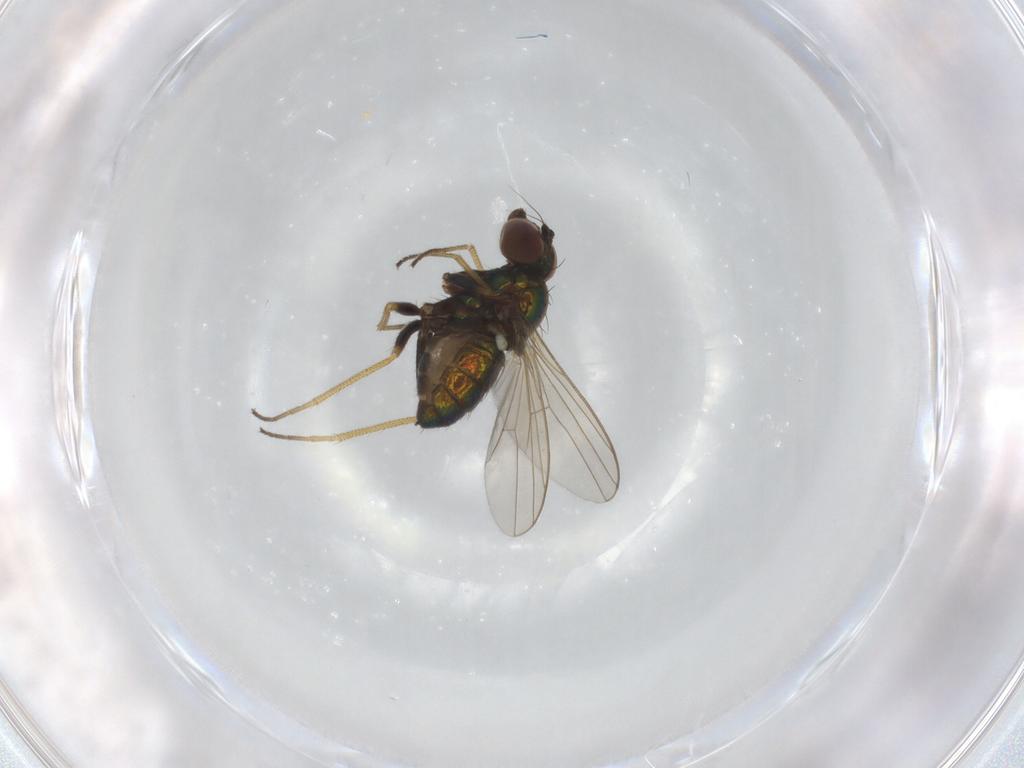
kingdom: Animalia
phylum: Arthropoda
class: Insecta
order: Diptera
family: Dolichopodidae
